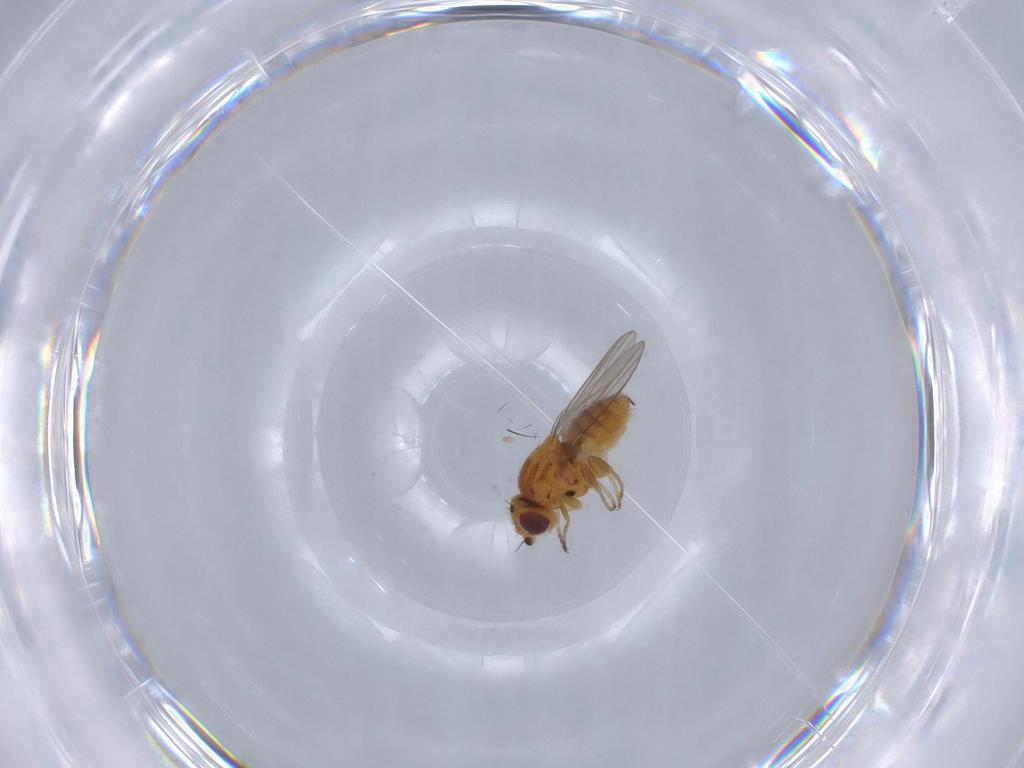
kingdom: Animalia
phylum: Arthropoda
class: Insecta
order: Diptera
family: Chloropidae
